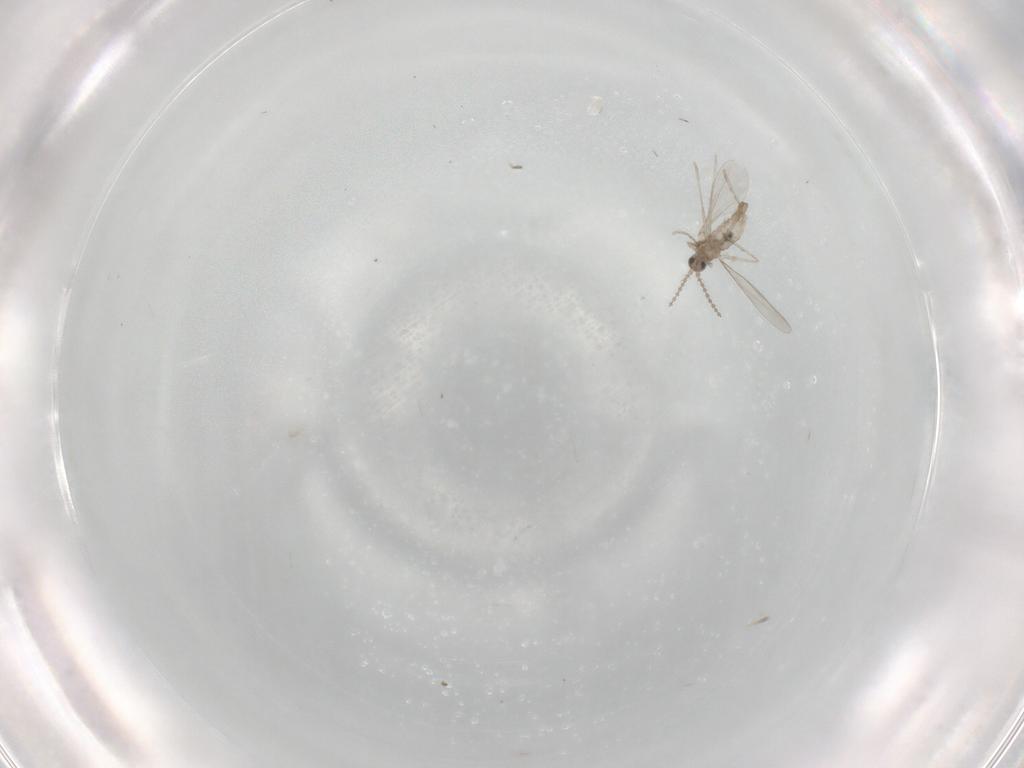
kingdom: Animalia
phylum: Arthropoda
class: Insecta
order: Diptera
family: Cecidomyiidae
